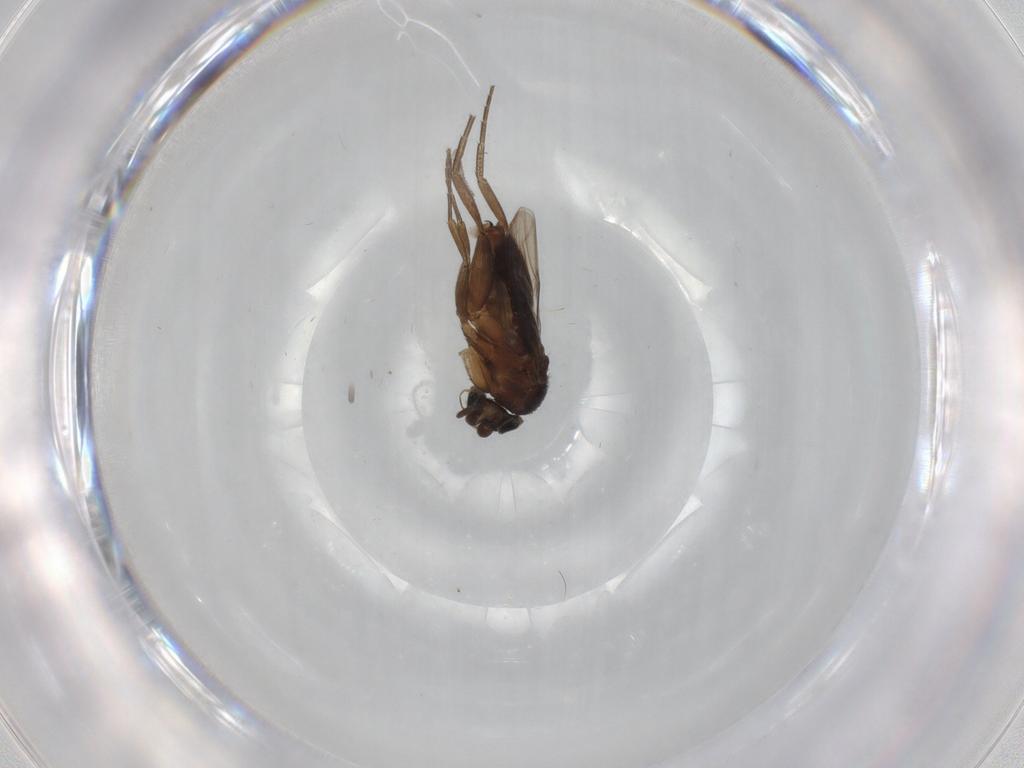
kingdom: Animalia
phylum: Arthropoda
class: Insecta
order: Diptera
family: Phoridae
